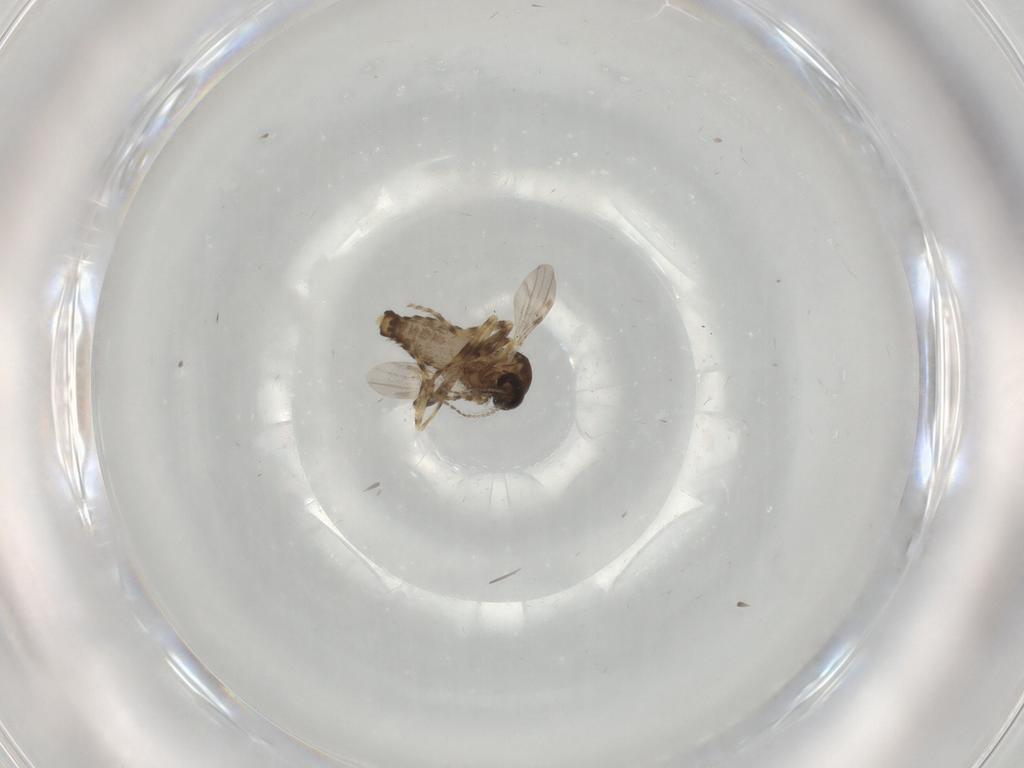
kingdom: Animalia
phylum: Arthropoda
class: Insecta
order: Diptera
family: Ceratopogonidae
